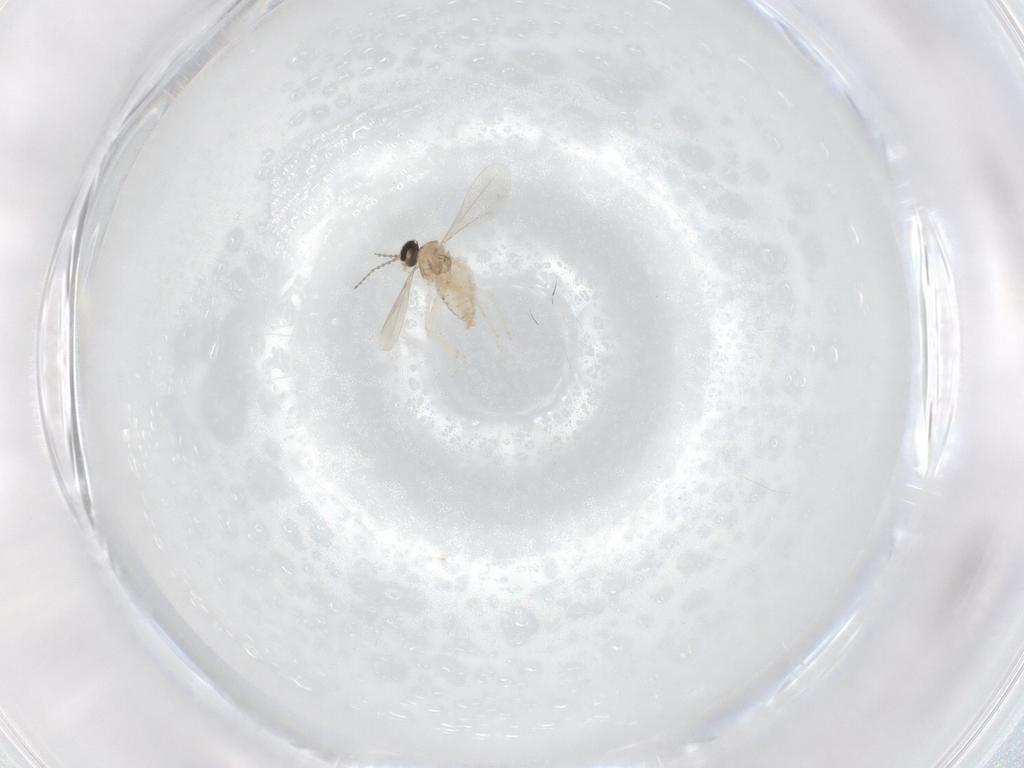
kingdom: Animalia
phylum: Arthropoda
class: Insecta
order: Diptera
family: Cecidomyiidae
